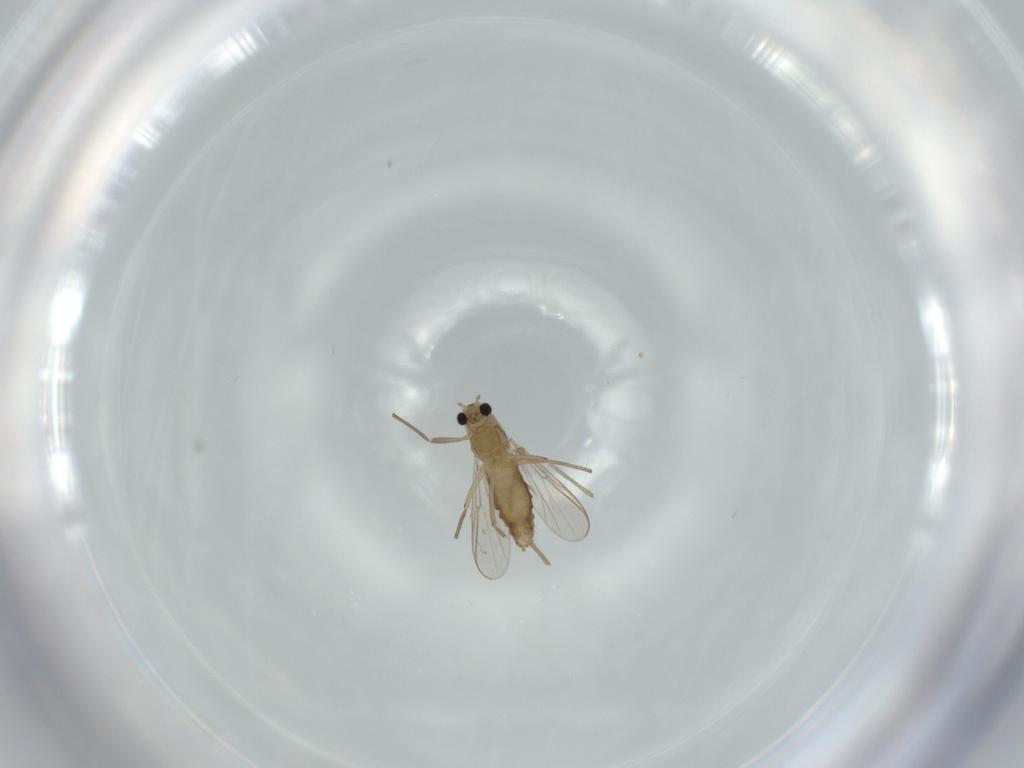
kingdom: Animalia
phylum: Arthropoda
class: Insecta
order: Diptera
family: Chironomidae
